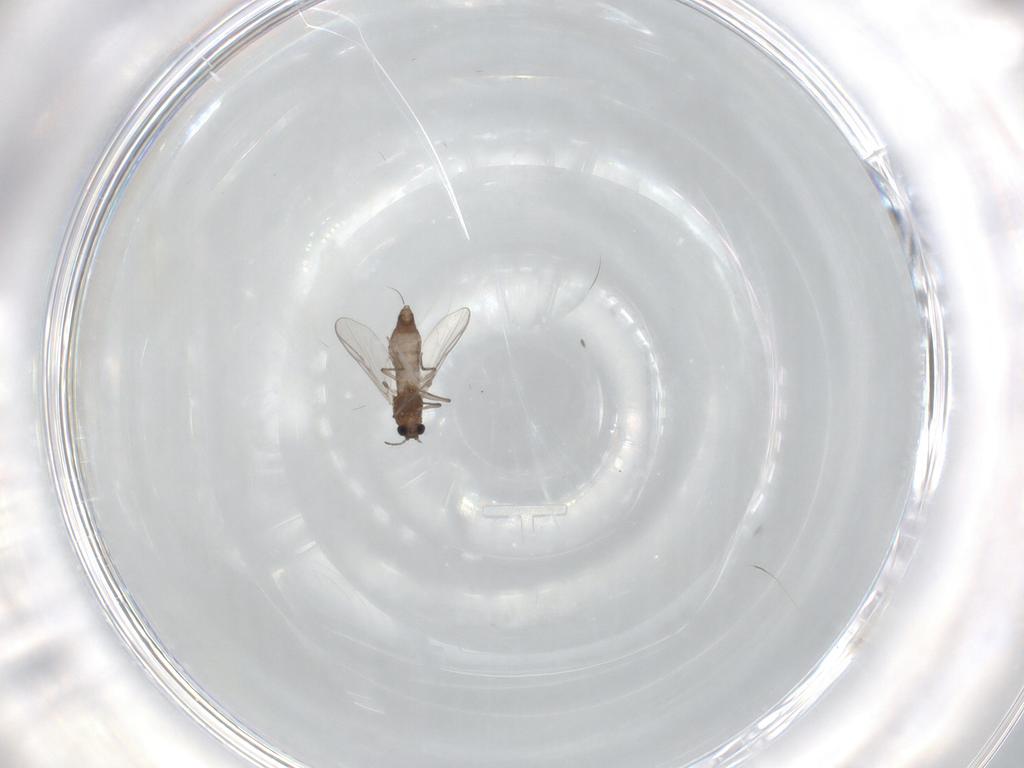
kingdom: Animalia
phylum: Arthropoda
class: Insecta
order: Diptera
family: Chironomidae
